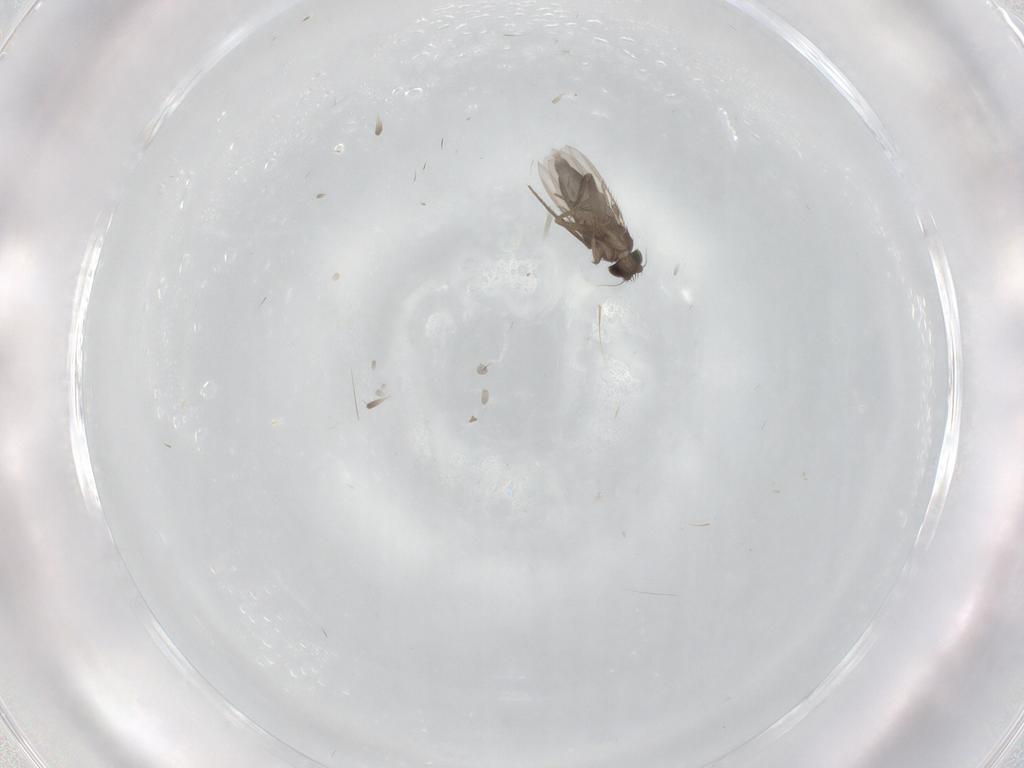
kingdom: Animalia
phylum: Arthropoda
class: Insecta
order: Diptera
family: Phoridae
